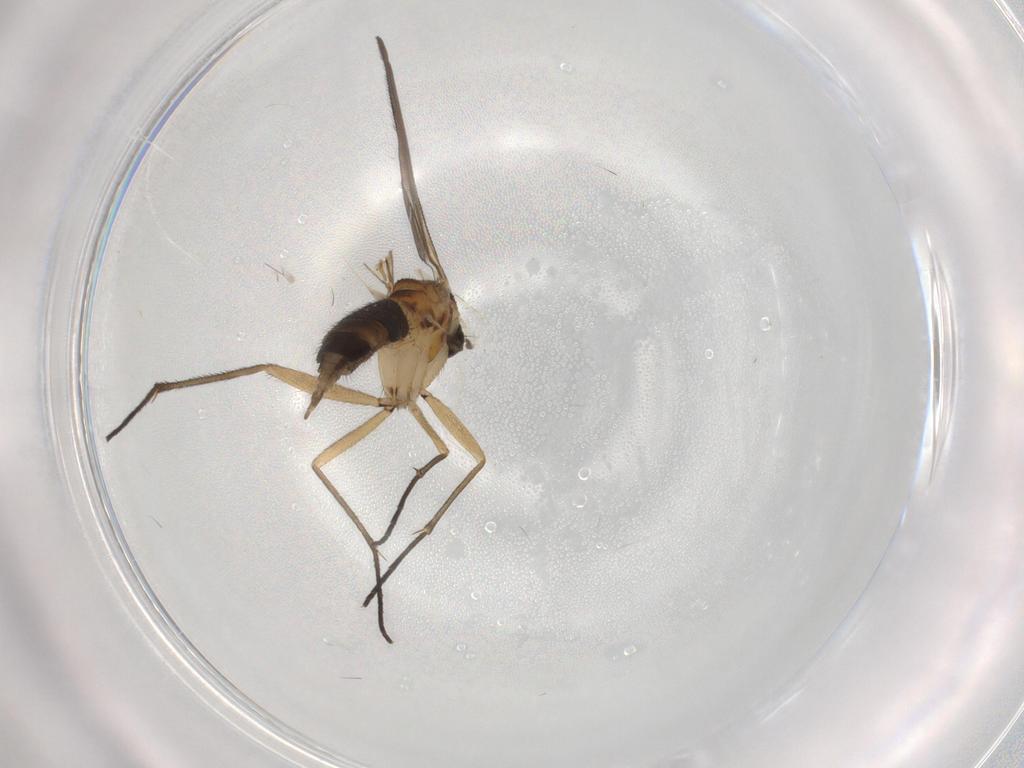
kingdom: Animalia
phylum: Arthropoda
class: Insecta
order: Diptera
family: Cecidomyiidae
